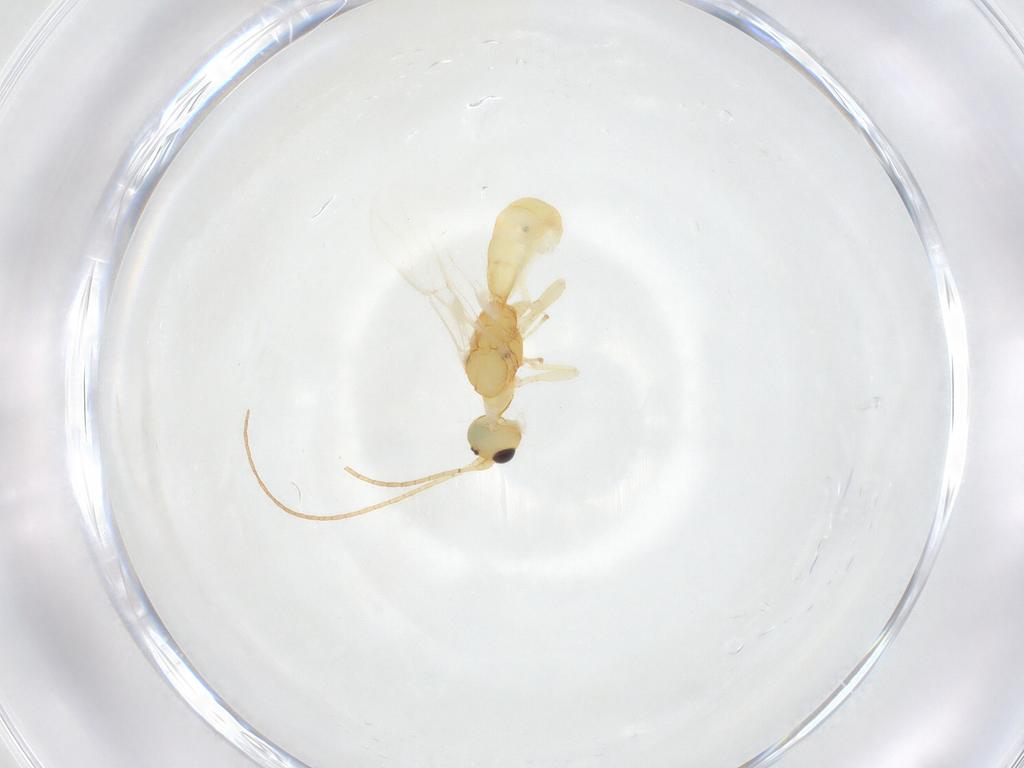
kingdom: Animalia
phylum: Arthropoda
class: Insecta
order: Hymenoptera
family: Braconidae
